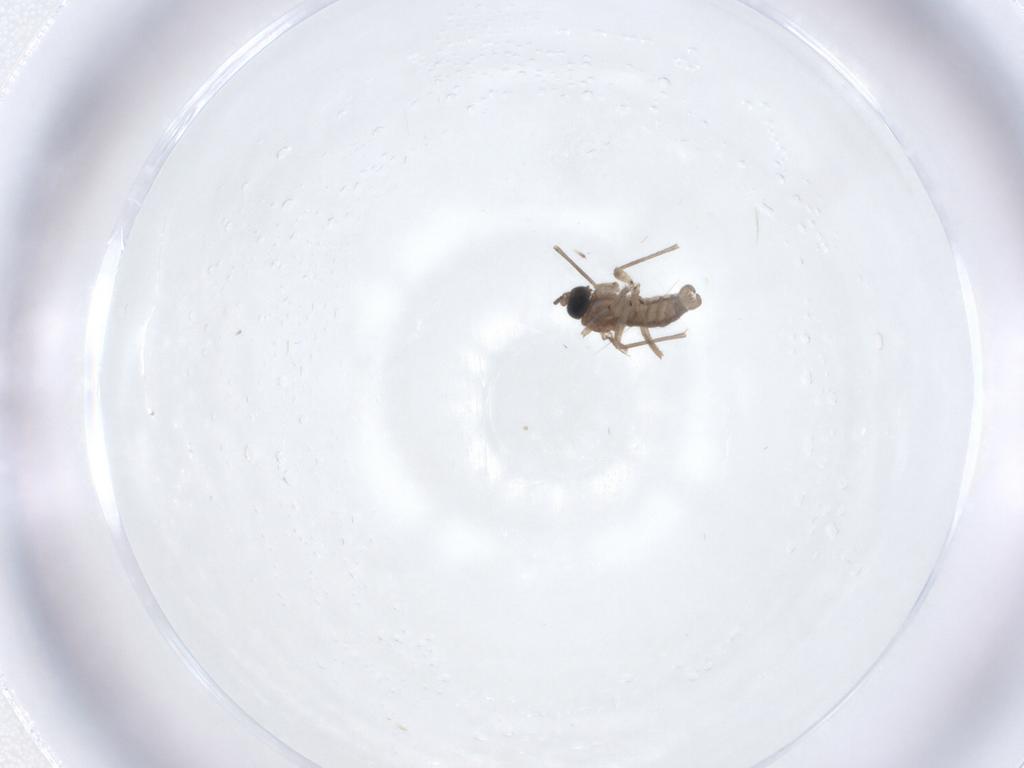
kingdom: Animalia
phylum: Arthropoda
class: Insecta
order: Diptera
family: Sciaridae
